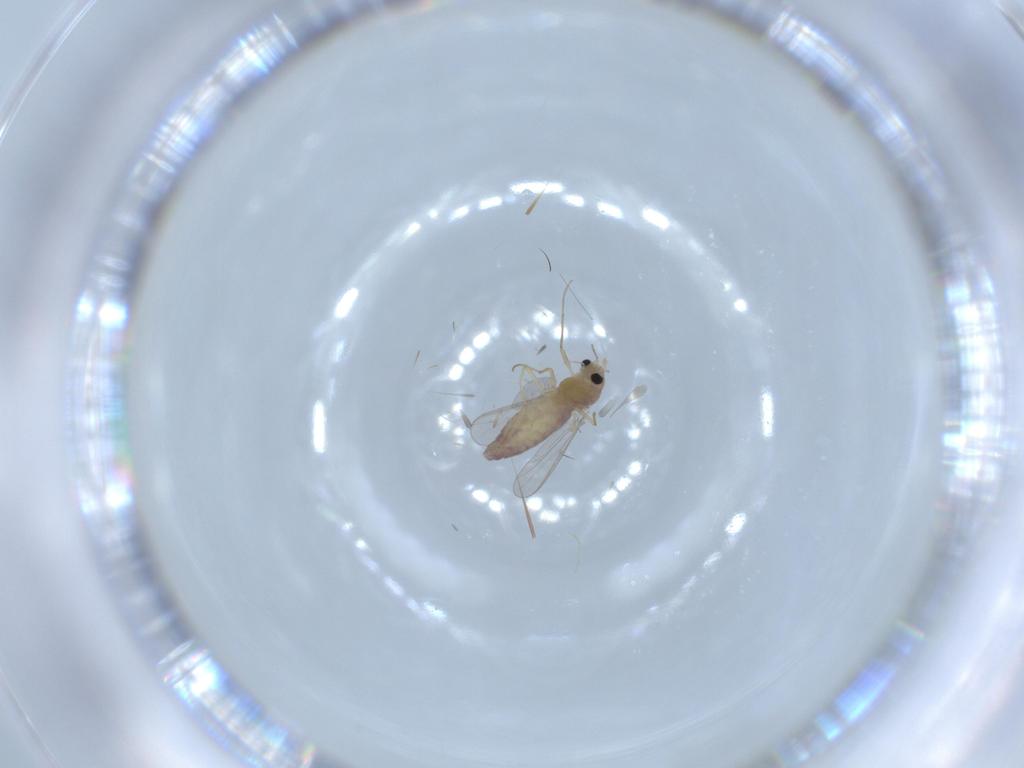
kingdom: Animalia
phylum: Arthropoda
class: Insecta
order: Diptera
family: Chironomidae
